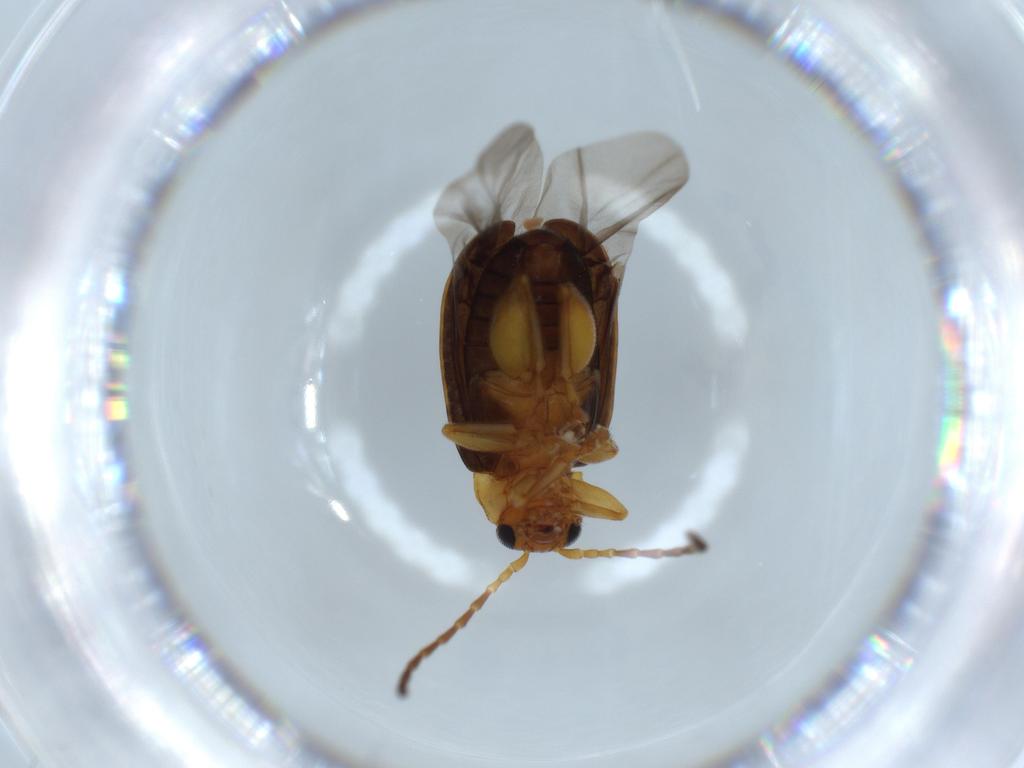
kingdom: Animalia
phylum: Arthropoda
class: Insecta
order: Coleoptera
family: Chrysomelidae
